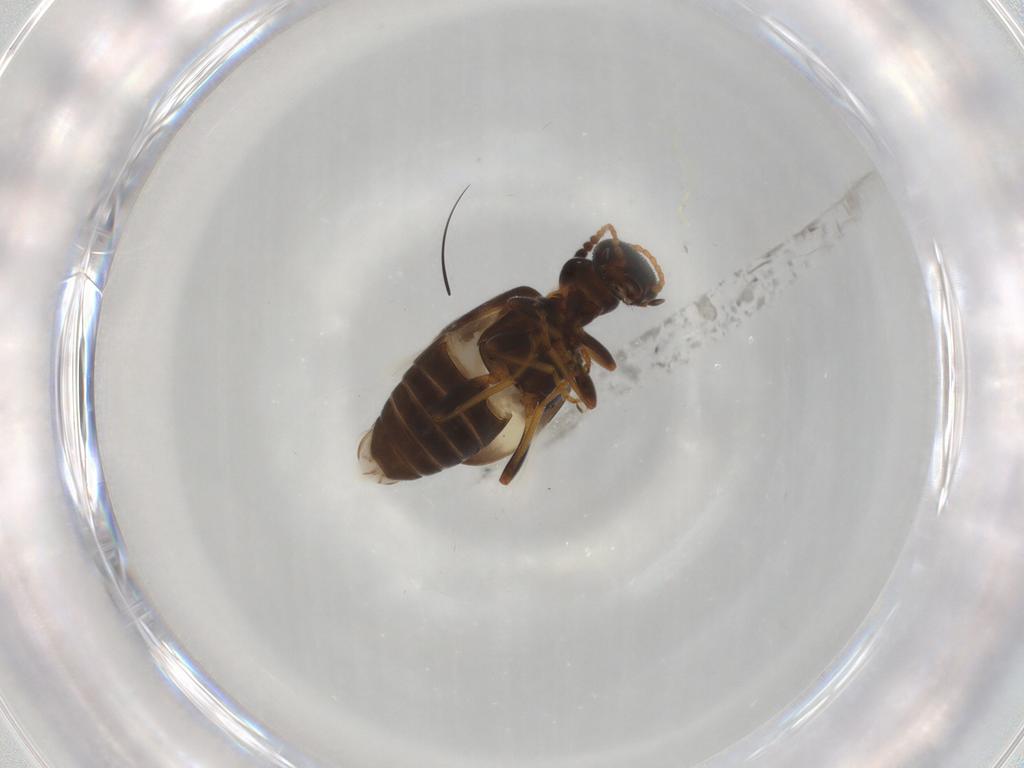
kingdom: Animalia
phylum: Arthropoda
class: Insecta
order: Coleoptera
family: Anthicidae
